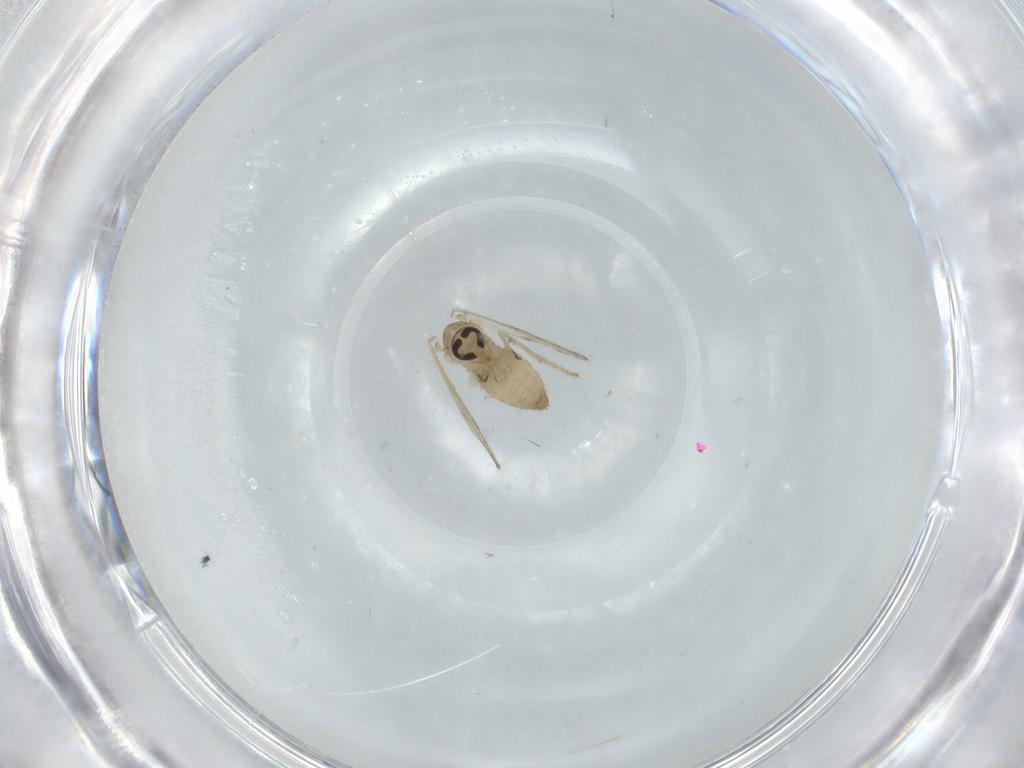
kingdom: Animalia
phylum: Arthropoda
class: Insecta
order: Diptera
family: Psychodidae
